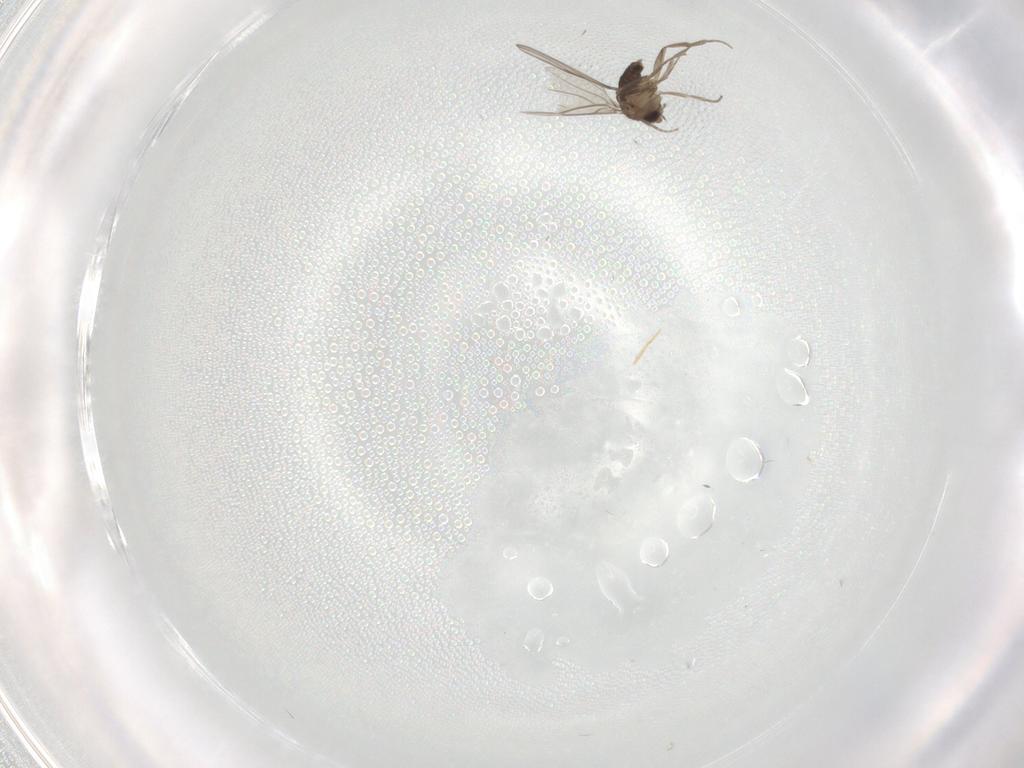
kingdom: Animalia
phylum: Arthropoda
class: Insecta
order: Diptera
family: Phoridae
